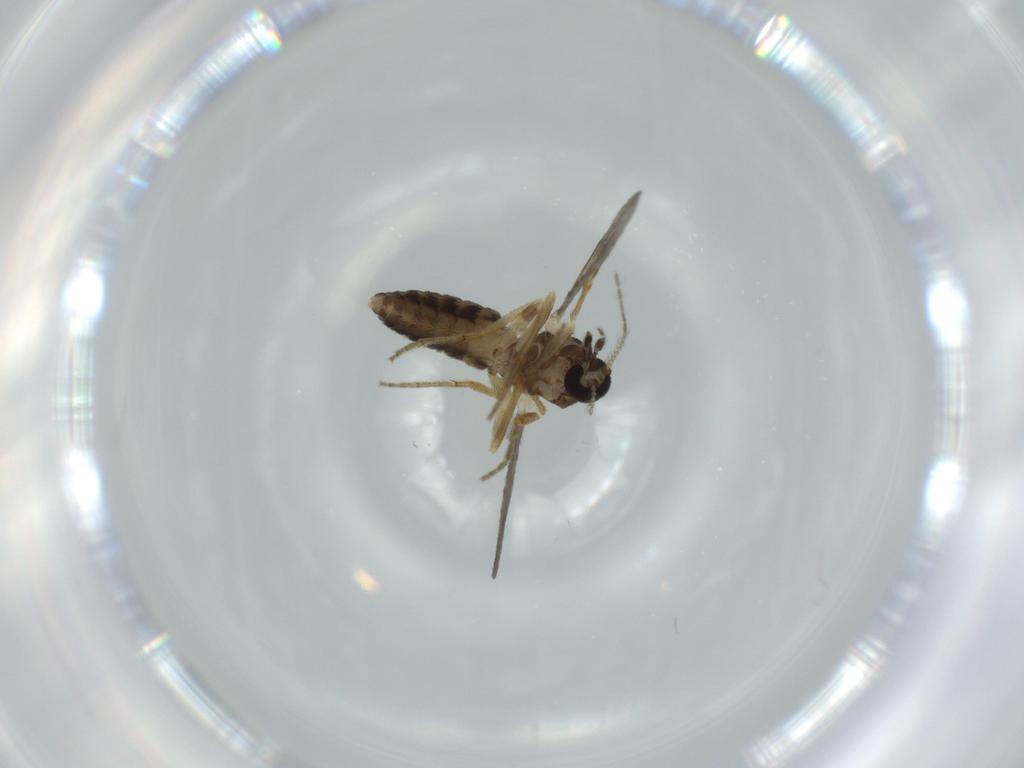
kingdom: Animalia
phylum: Arthropoda
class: Insecta
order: Diptera
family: Ceratopogonidae
